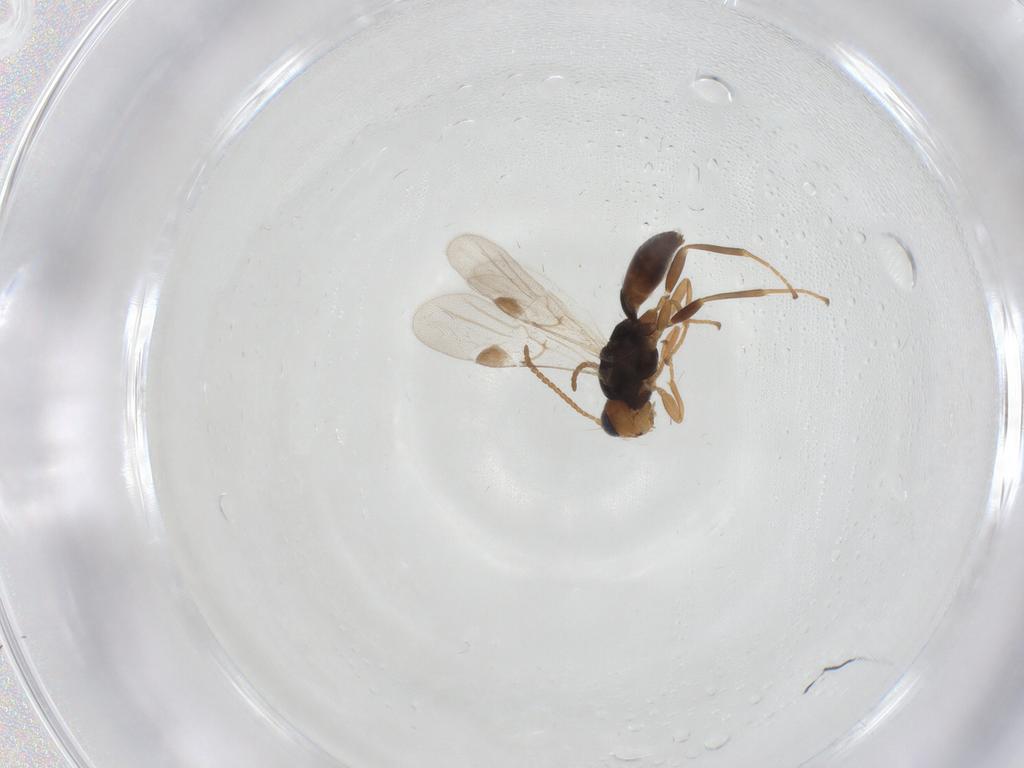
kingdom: Animalia
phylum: Arthropoda
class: Insecta
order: Hymenoptera
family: Braconidae
